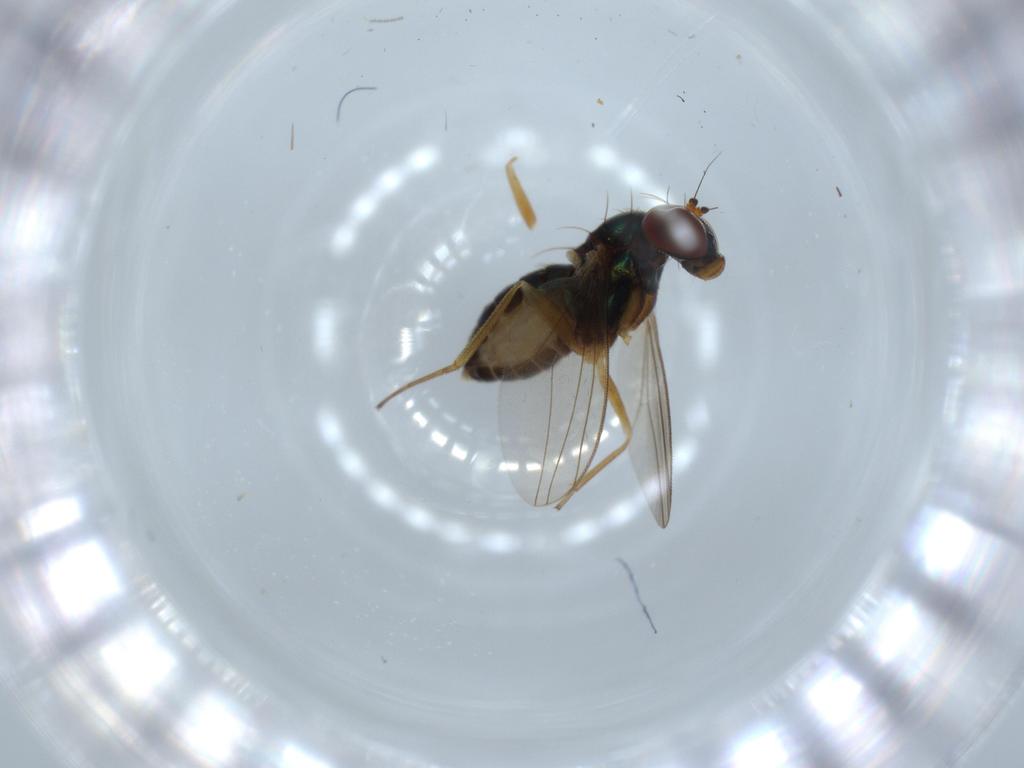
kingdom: Animalia
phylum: Arthropoda
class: Insecta
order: Diptera
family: Dolichopodidae
